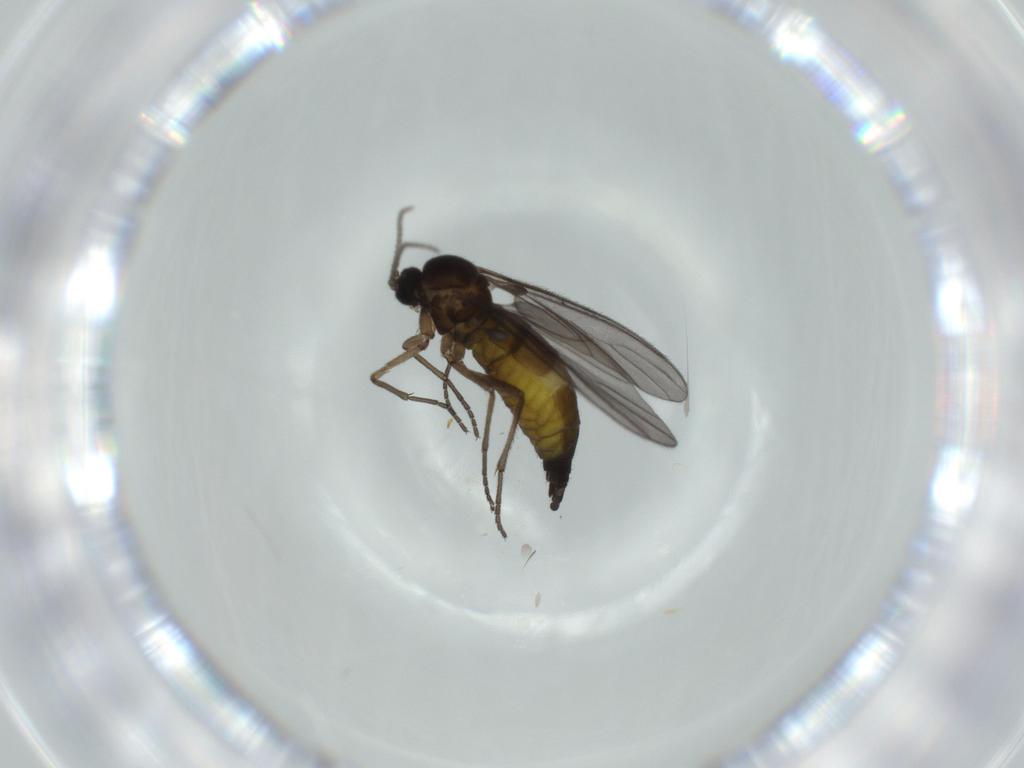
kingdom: Animalia
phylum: Arthropoda
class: Insecta
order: Diptera
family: Sciaridae
